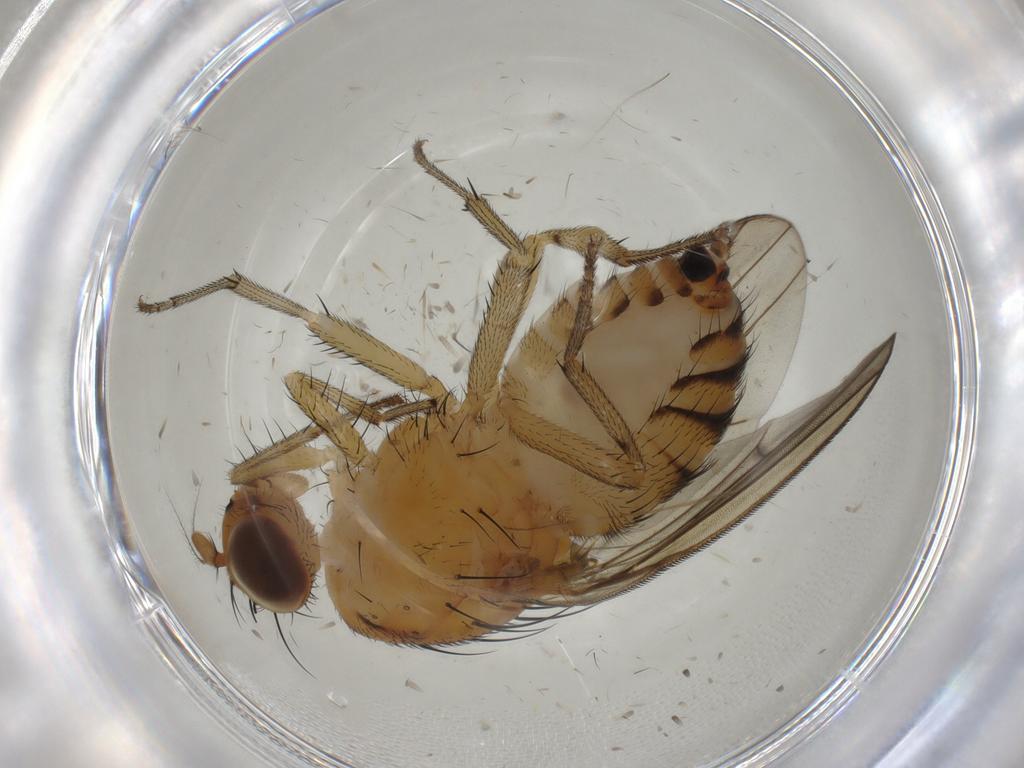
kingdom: Animalia
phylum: Arthropoda
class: Insecta
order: Diptera
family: Cecidomyiidae
